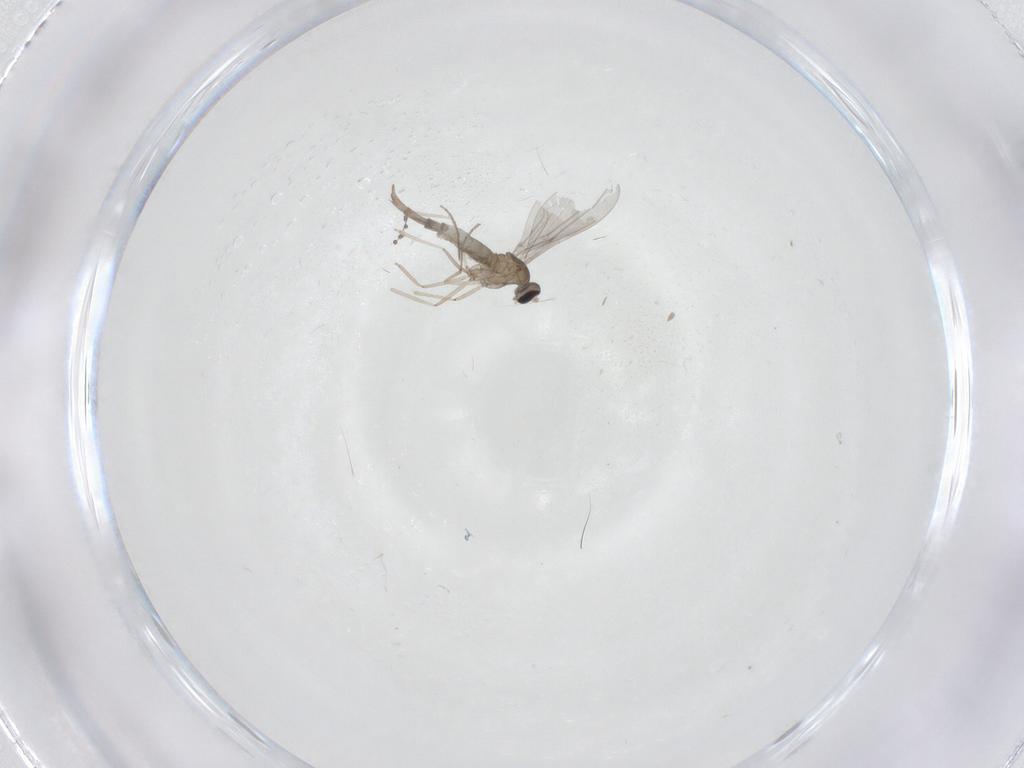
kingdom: Animalia
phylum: Arthropoda
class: Insecta
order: Diptera
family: Cecidomyiidae
